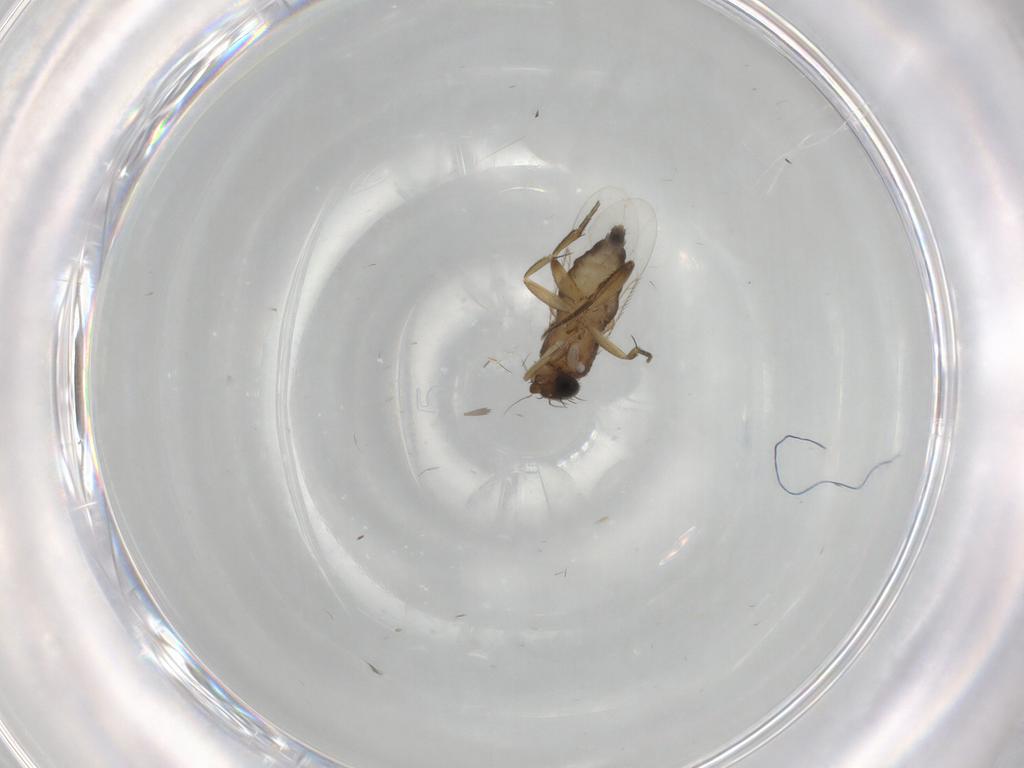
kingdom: Animalia
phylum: Arthropoda
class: Insecta
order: Diptera
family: Phoridae
